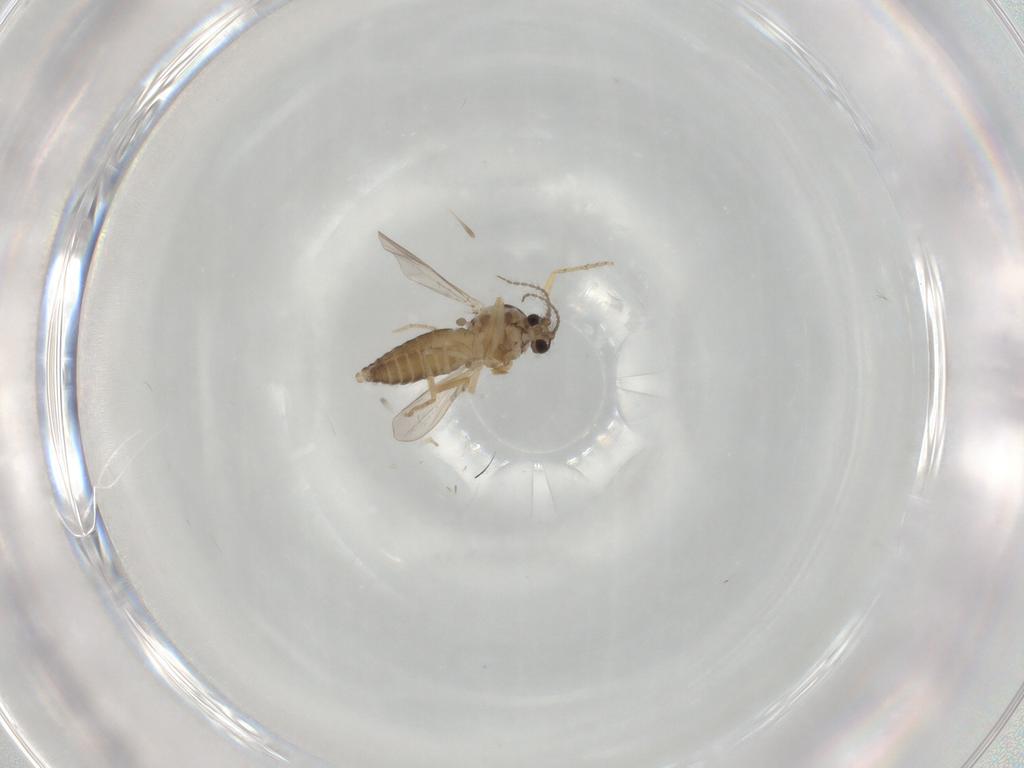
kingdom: Animalia
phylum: Arthropoda
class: Insecta
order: Diptera
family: Ceratopogonidae
